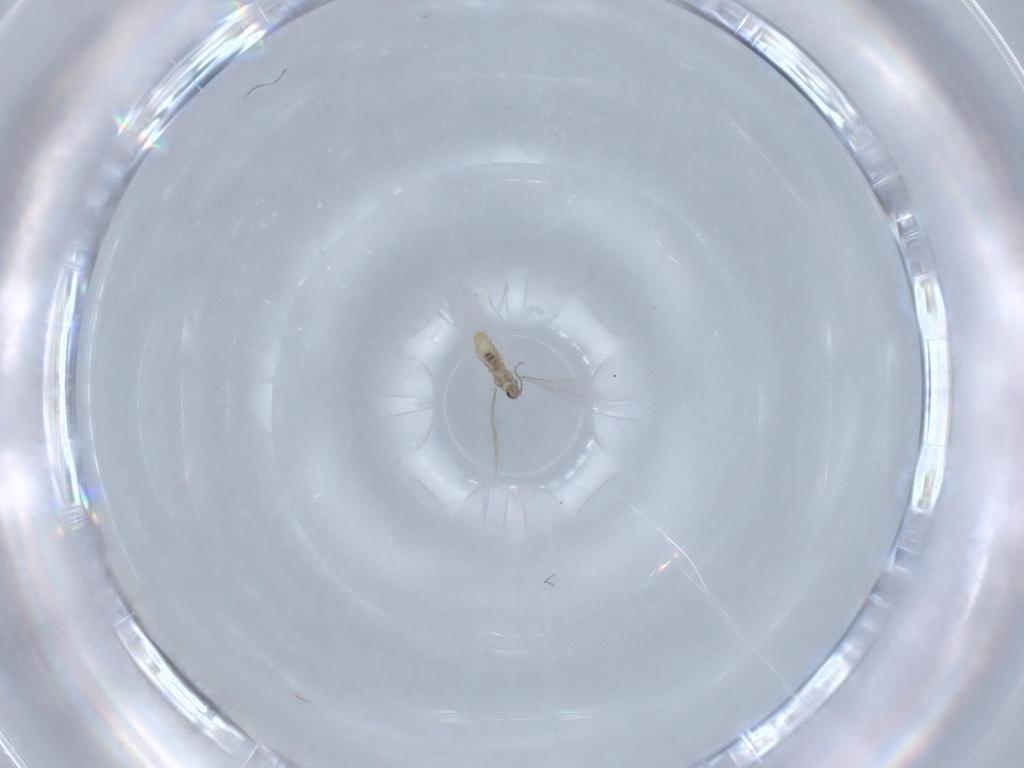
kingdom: Animalia
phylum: Arthropoda
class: Insecta
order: Diptera
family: Cecidomyiidae
